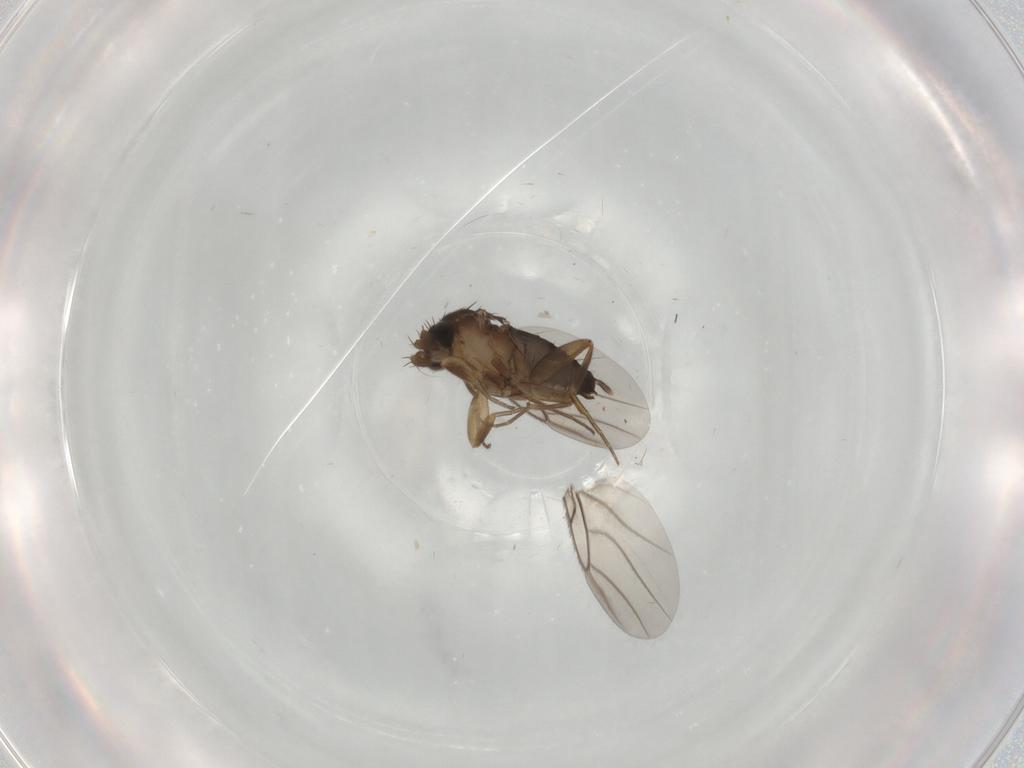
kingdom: Animalia
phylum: Arthropoda
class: Insecta
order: Diptera
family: Phoridae
